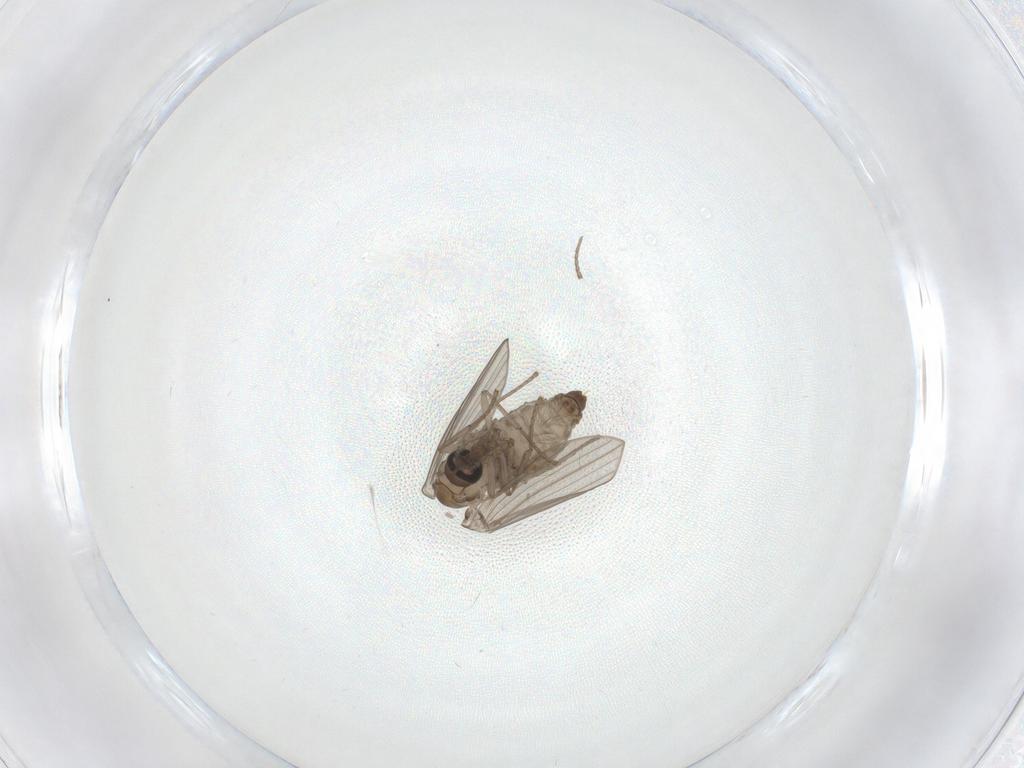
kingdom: Animalia
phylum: Arthropoda
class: Insecta
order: Diptera
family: Psychodidae
